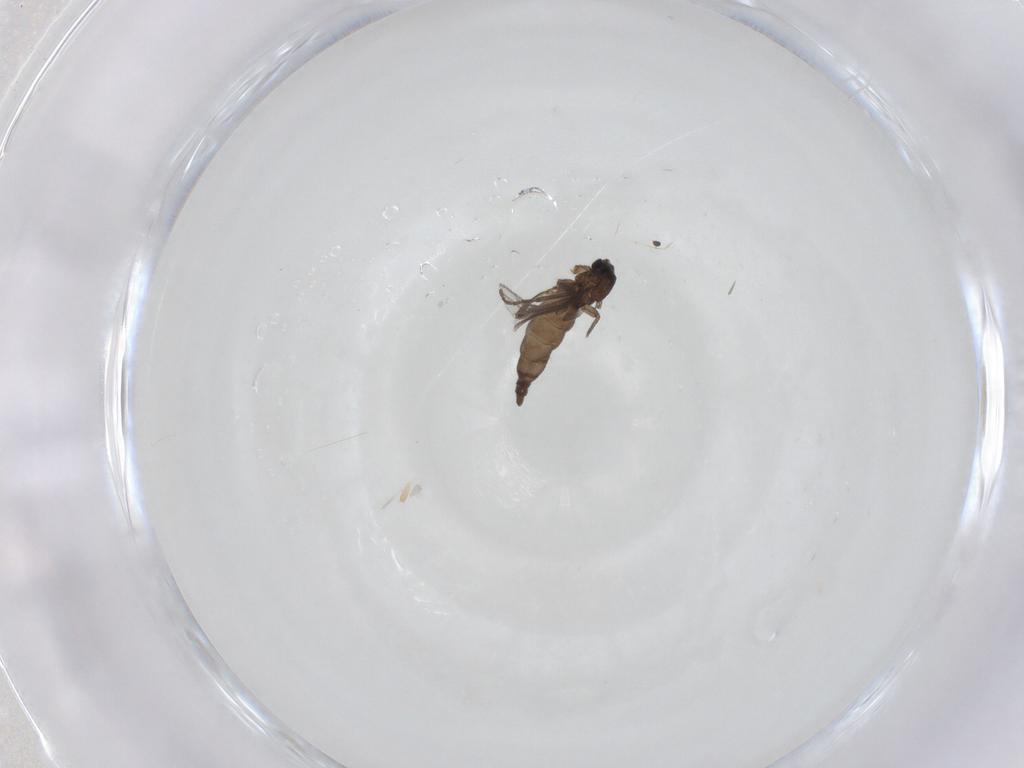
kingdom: Animalia
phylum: Arthropoda
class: Insecta
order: Diptera
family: Sciaridae
